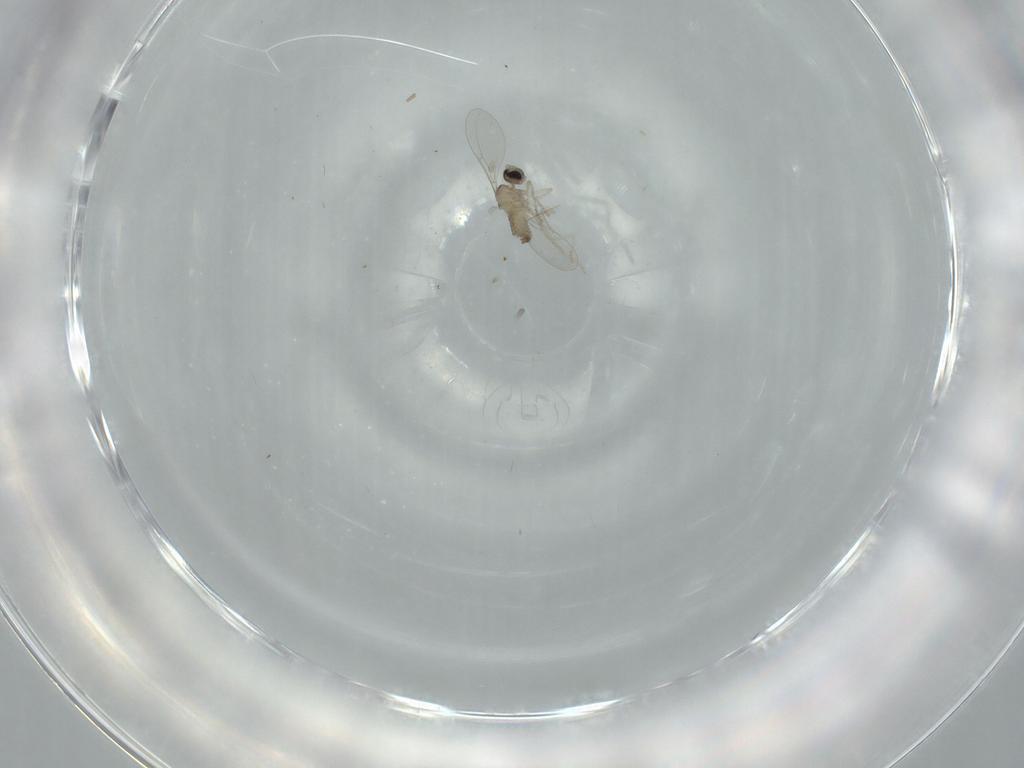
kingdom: Animalia
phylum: Arthropoda
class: Insecta
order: Diptera
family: Cecidomyiidae
